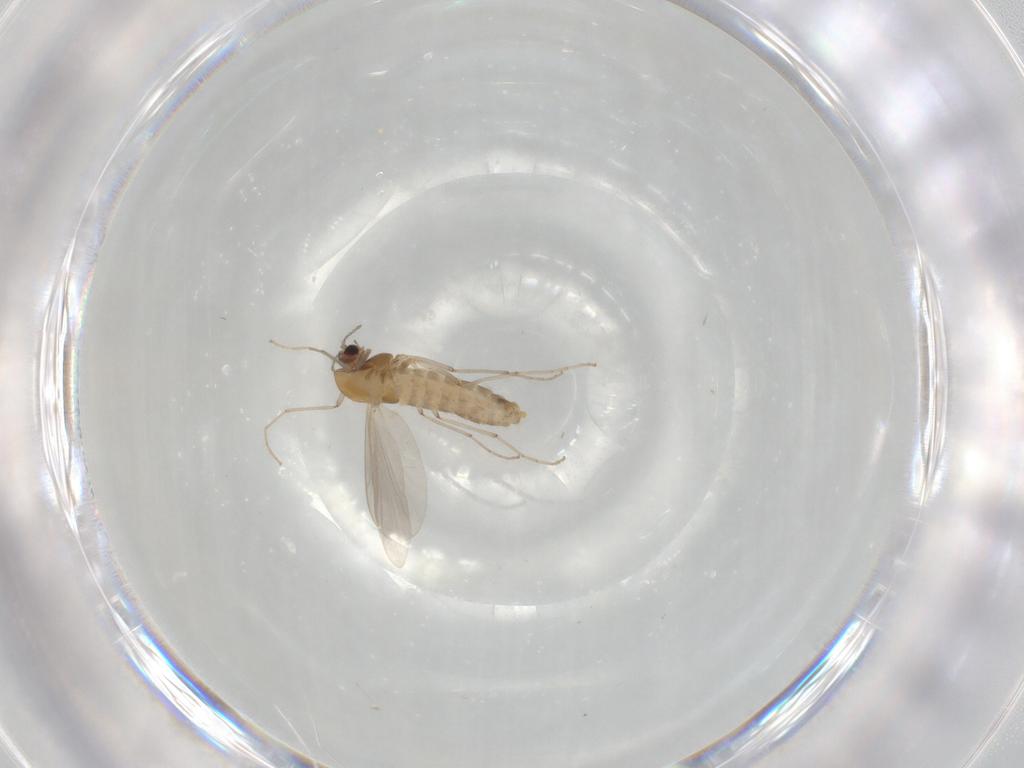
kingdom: Animalia
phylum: Arthropoda
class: Insecta
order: Diptera
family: Chironomidae
